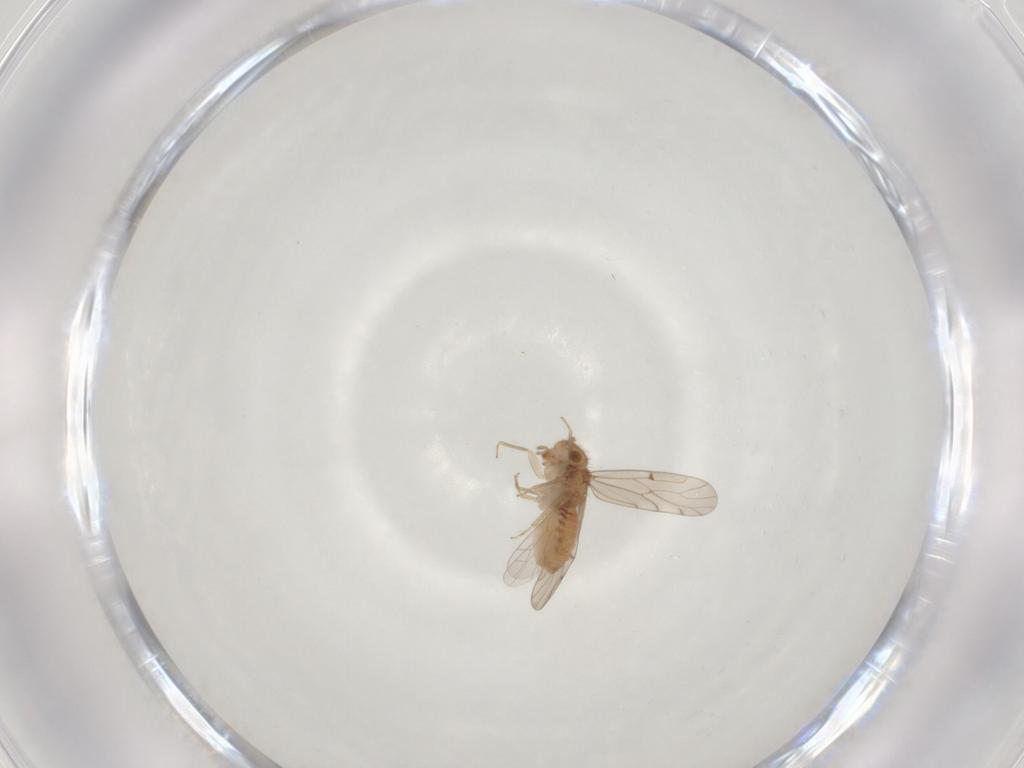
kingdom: Animalia
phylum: Arthropoda
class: Insecta
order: Psocodea
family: Ectopsocidae
